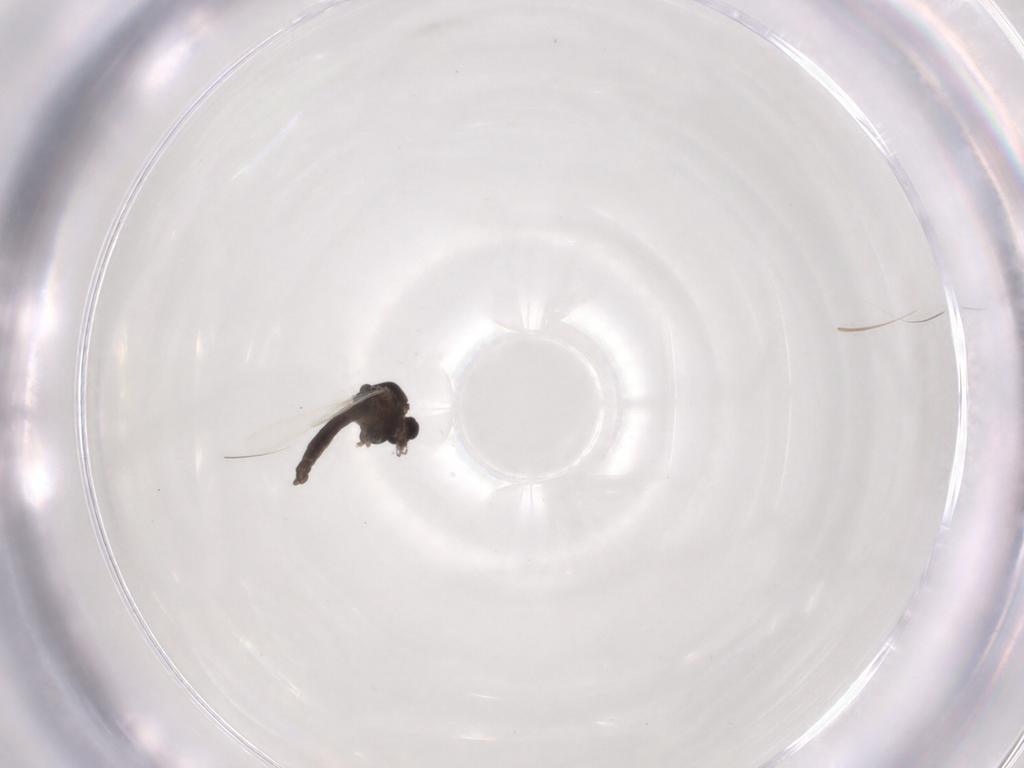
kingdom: Animalia
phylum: Arthropoda
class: Insecta
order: Diptera
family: Chironomidae
